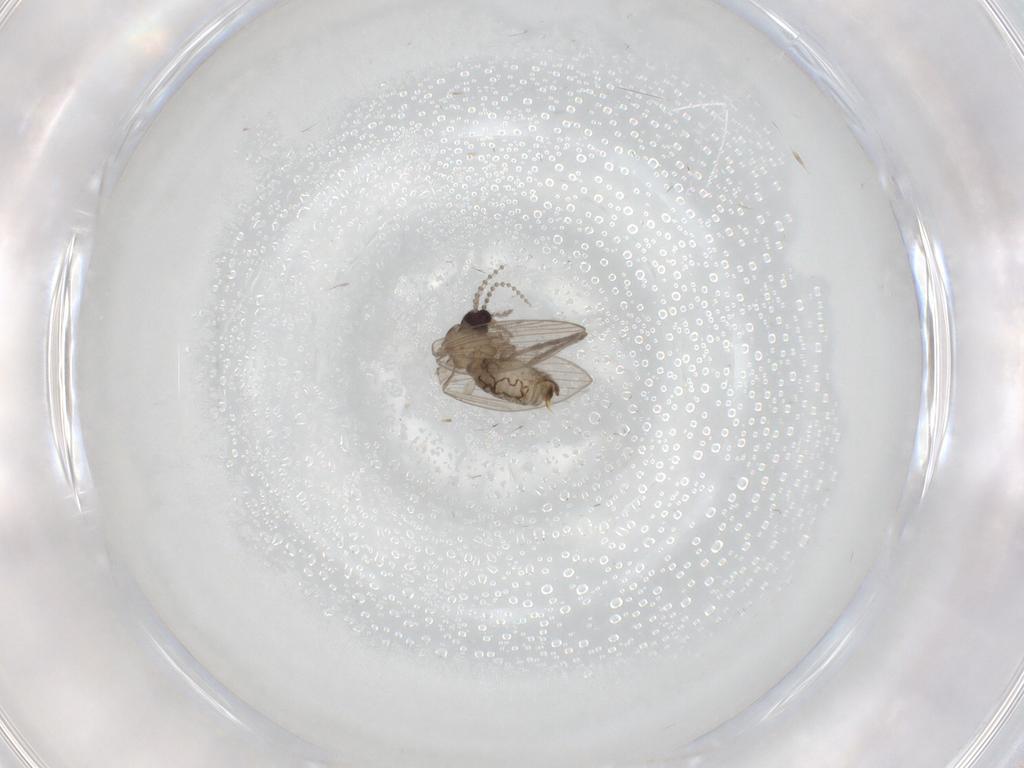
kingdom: Animalia
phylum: Arthropoda
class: Insecta
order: Diptera
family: Psychodidae
